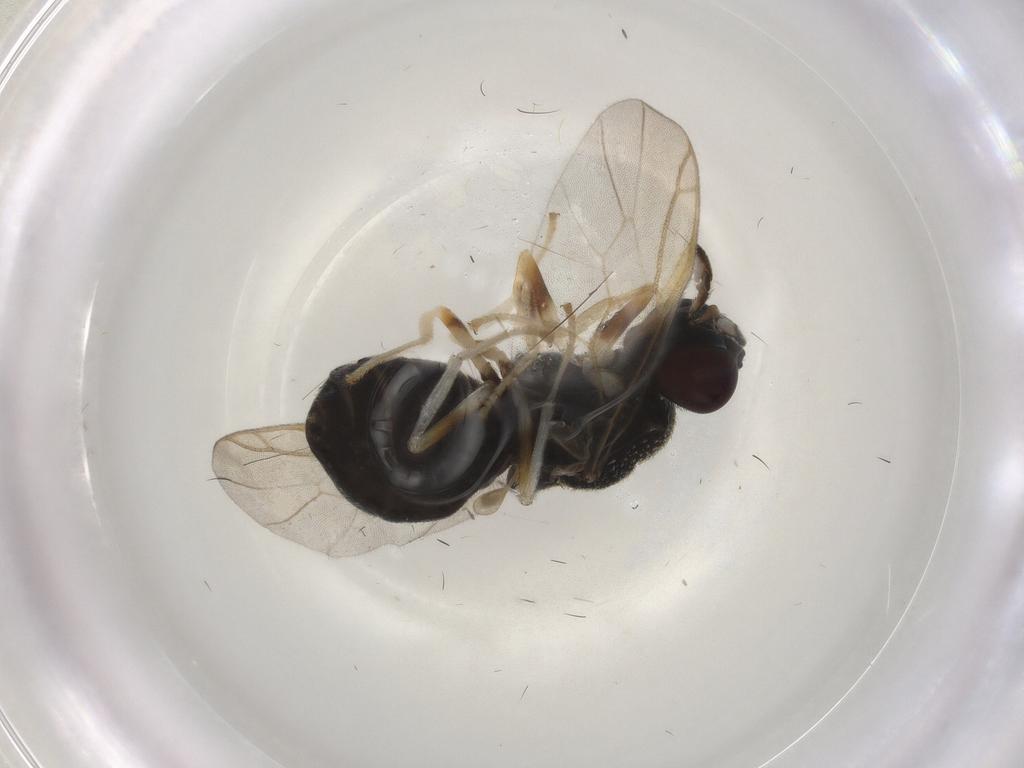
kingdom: Animalia
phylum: Arthropoda
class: Insecta
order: Diptera
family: Stratiomyidae
